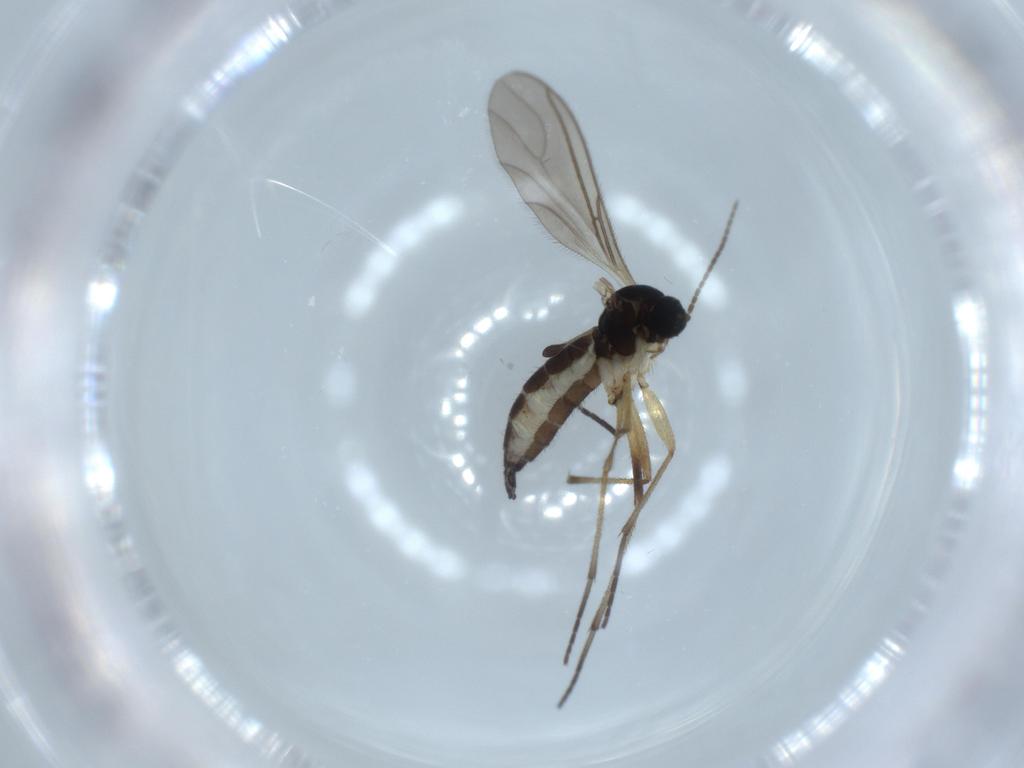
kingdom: Animalia
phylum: Arthropoda
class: Insecta
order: Diptera
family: Sciaridae
